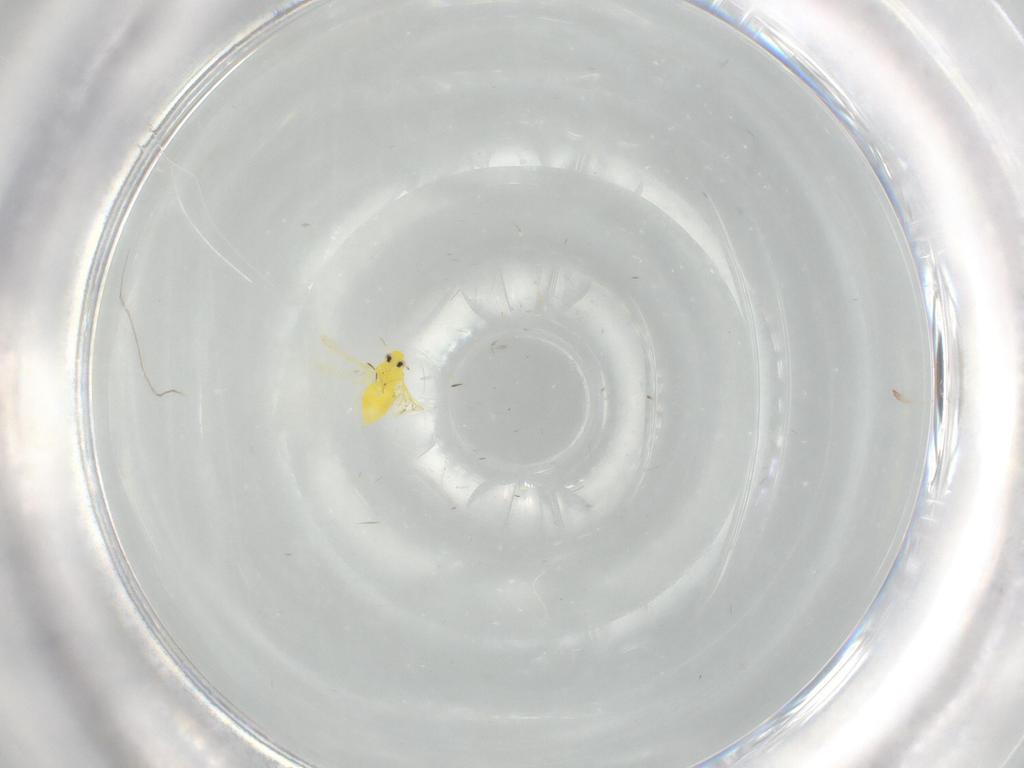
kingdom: Animalia
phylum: Arthropoda
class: Insecta
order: Hemiptera
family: Aleyrodidae
